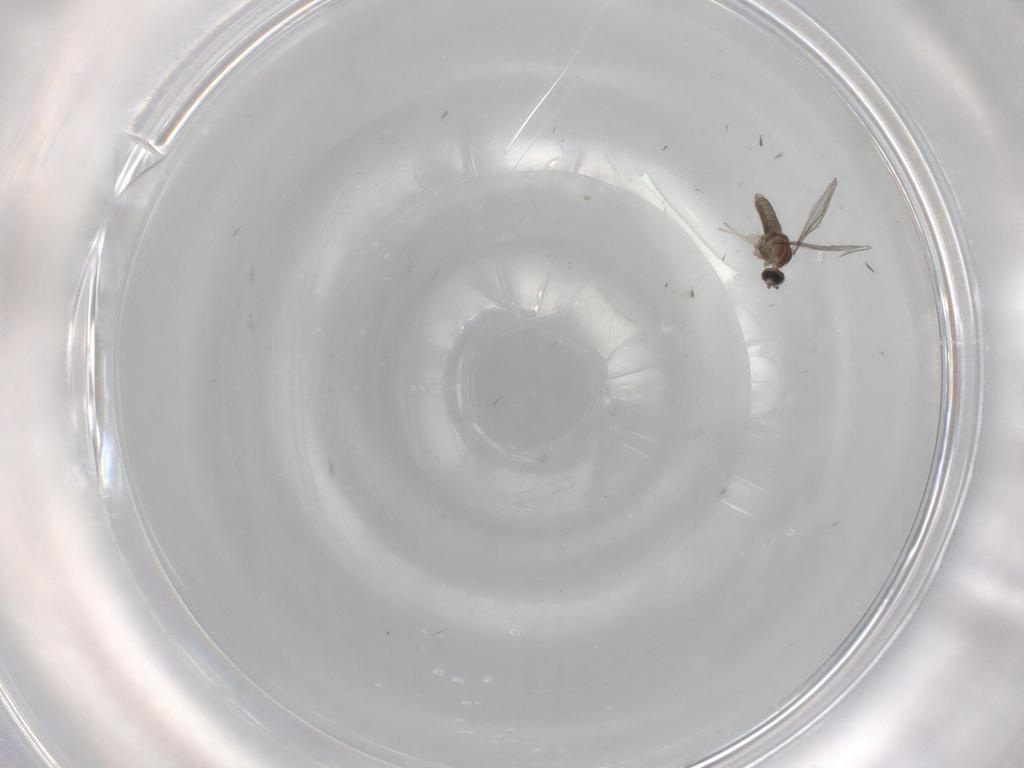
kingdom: Animalia
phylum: Arthropoda
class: Insecta
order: Diptera
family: Cecidomyiidae
